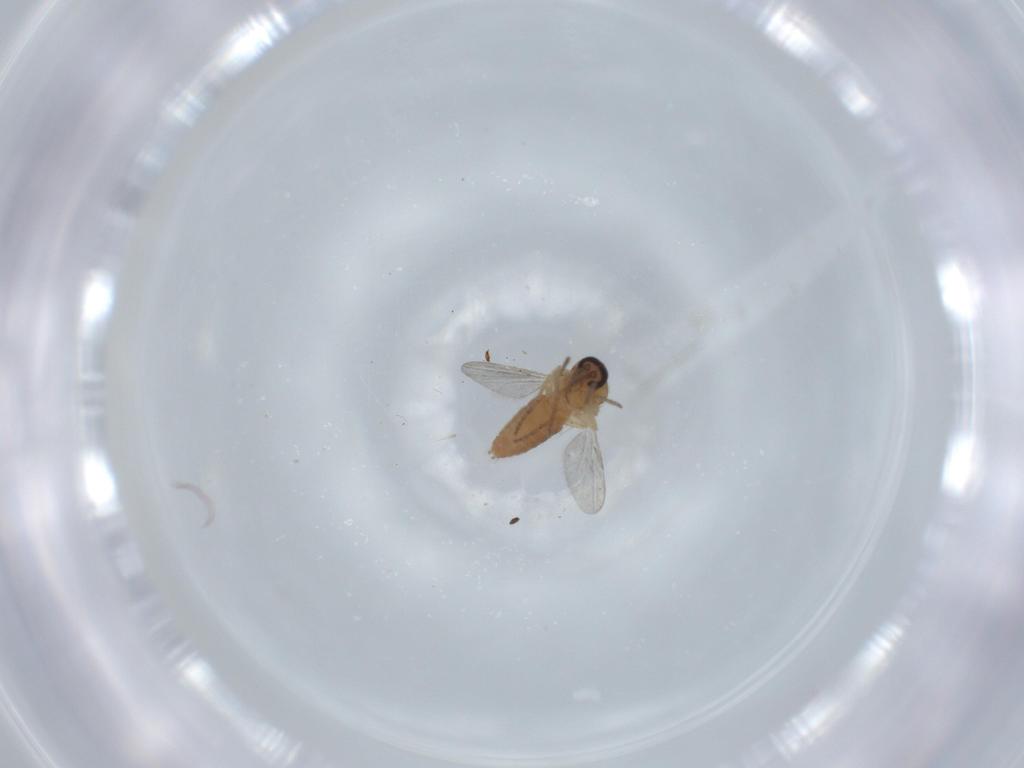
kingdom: Animalia
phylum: Arthropoda
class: Insecta
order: Diptera
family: Ceratopogonidae
